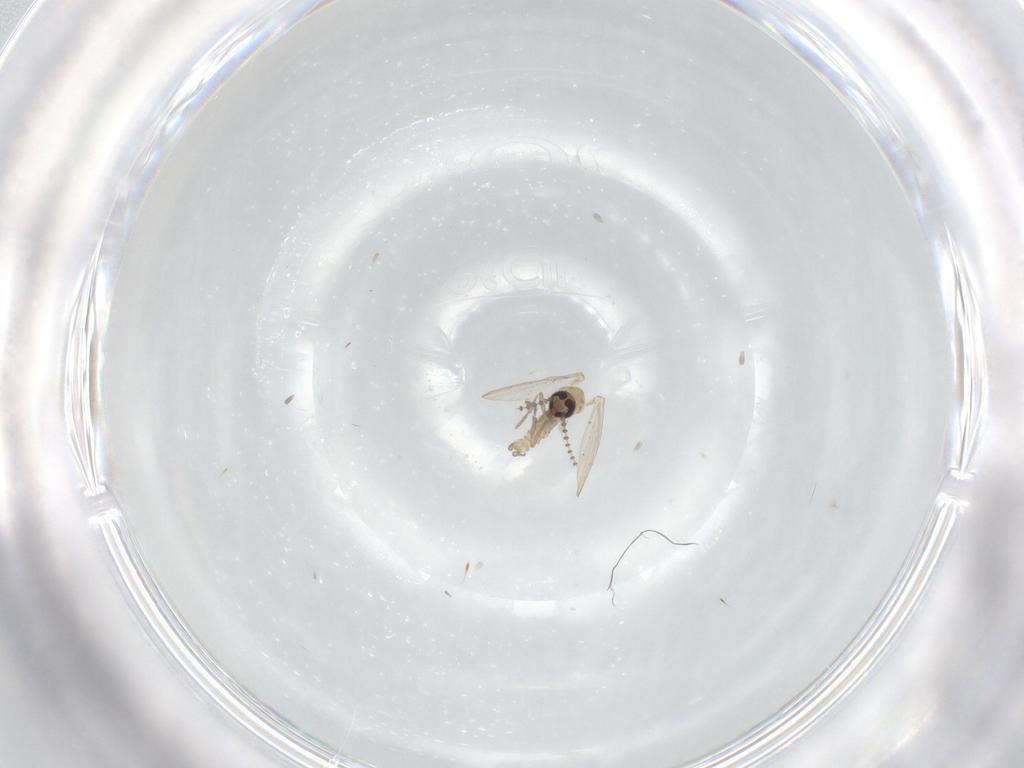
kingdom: Animalia
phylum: Arthropoda
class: Insecta
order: Diptera
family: Psychodidae
